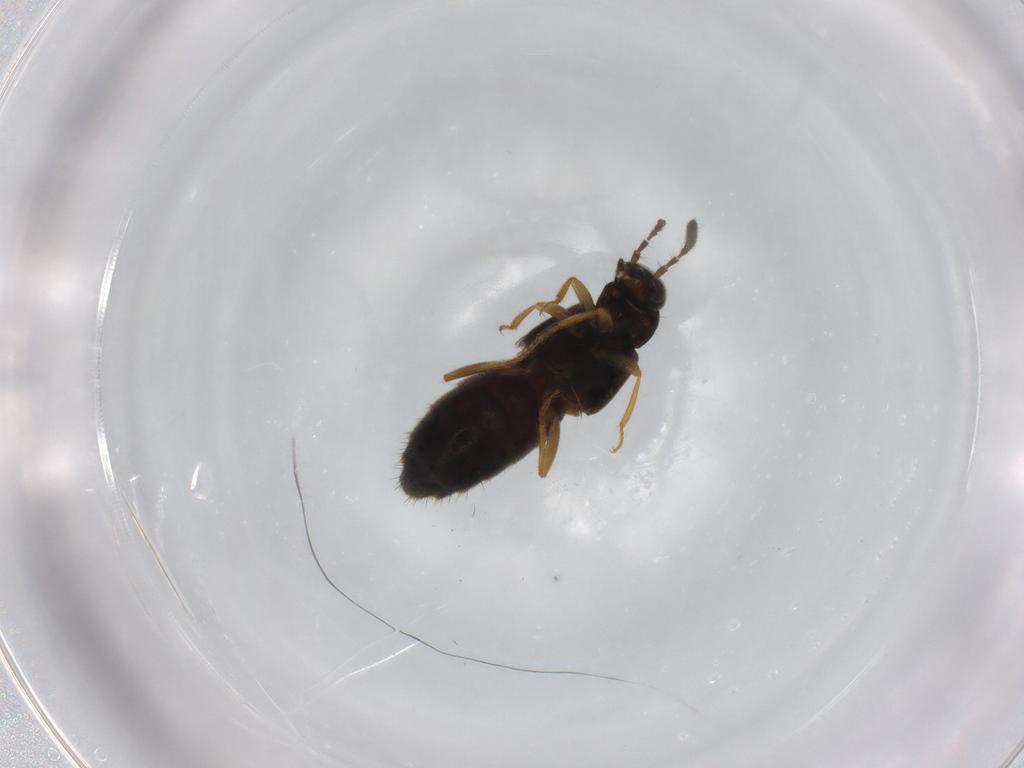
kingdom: Animalia
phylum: Arthropoda
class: Insecta
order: Coleoptera
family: Staphylinidae
